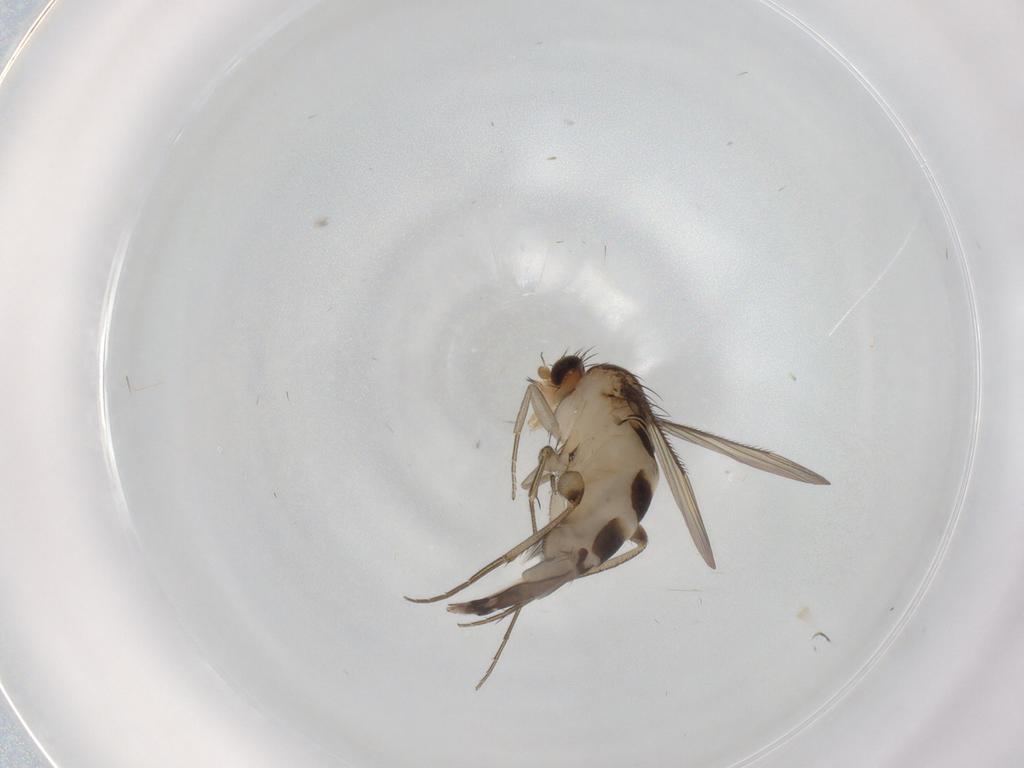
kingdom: Animalia
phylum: Arthropoda
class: Insecta
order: Diptera
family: Phoridae
